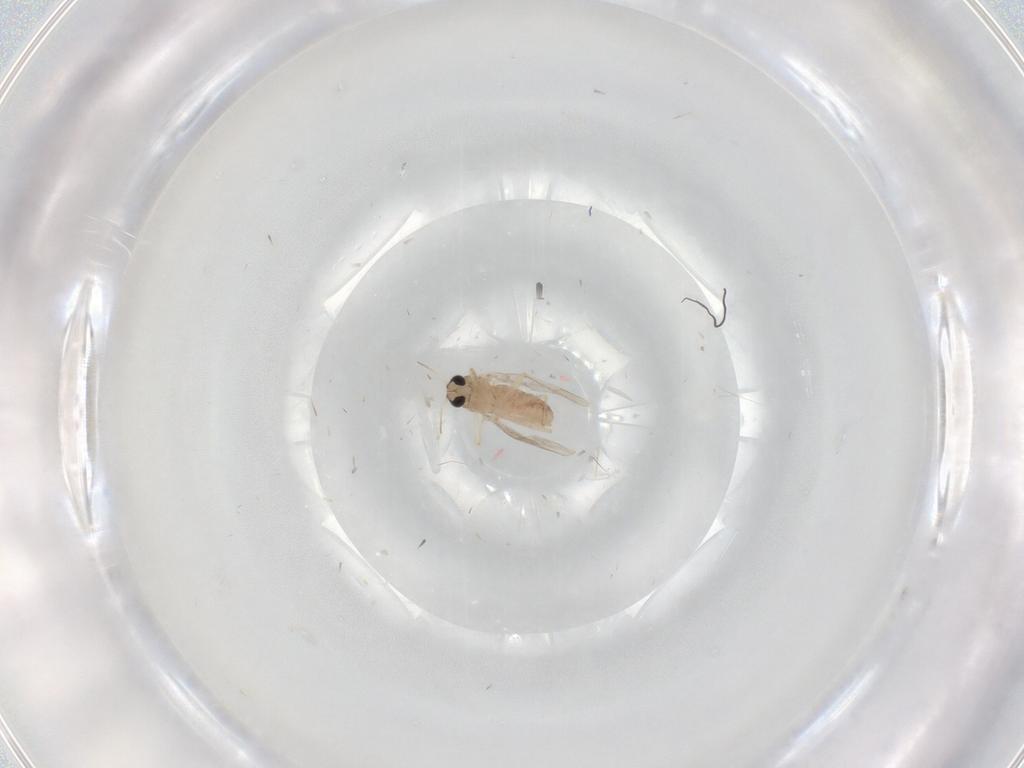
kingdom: Animalia
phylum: Arthropoda
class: Insecta
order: Diptera
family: Chironomidae
